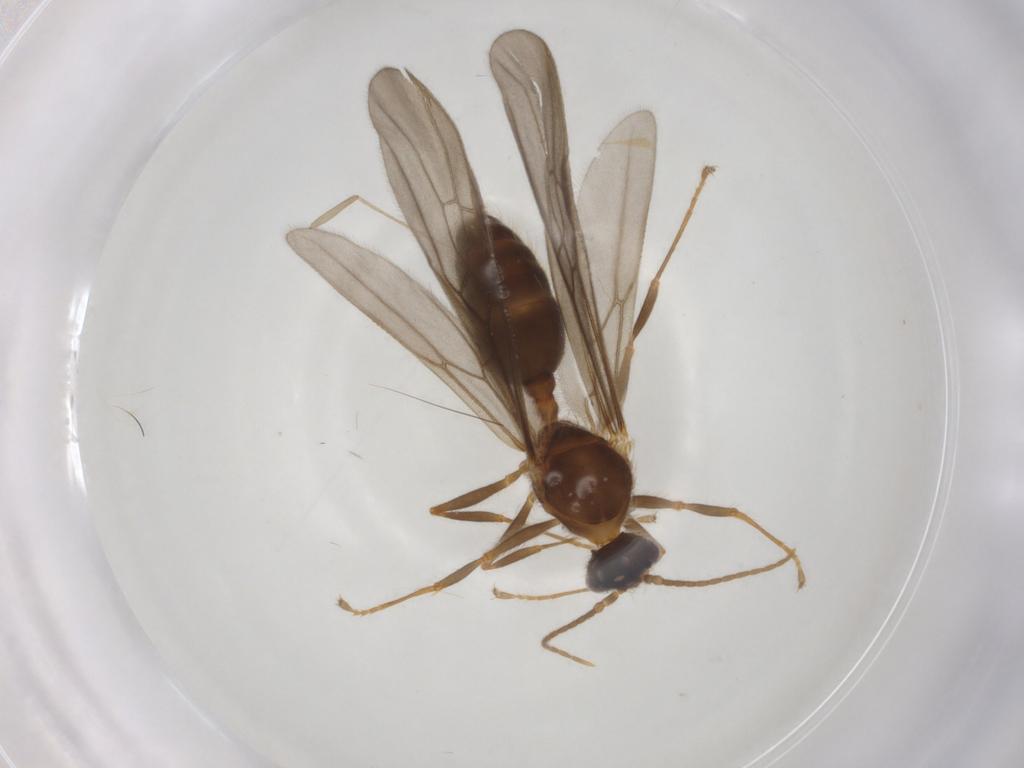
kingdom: Animalia
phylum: Arthropoda
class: Insecta
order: Hymenoptera
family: Formicidae
